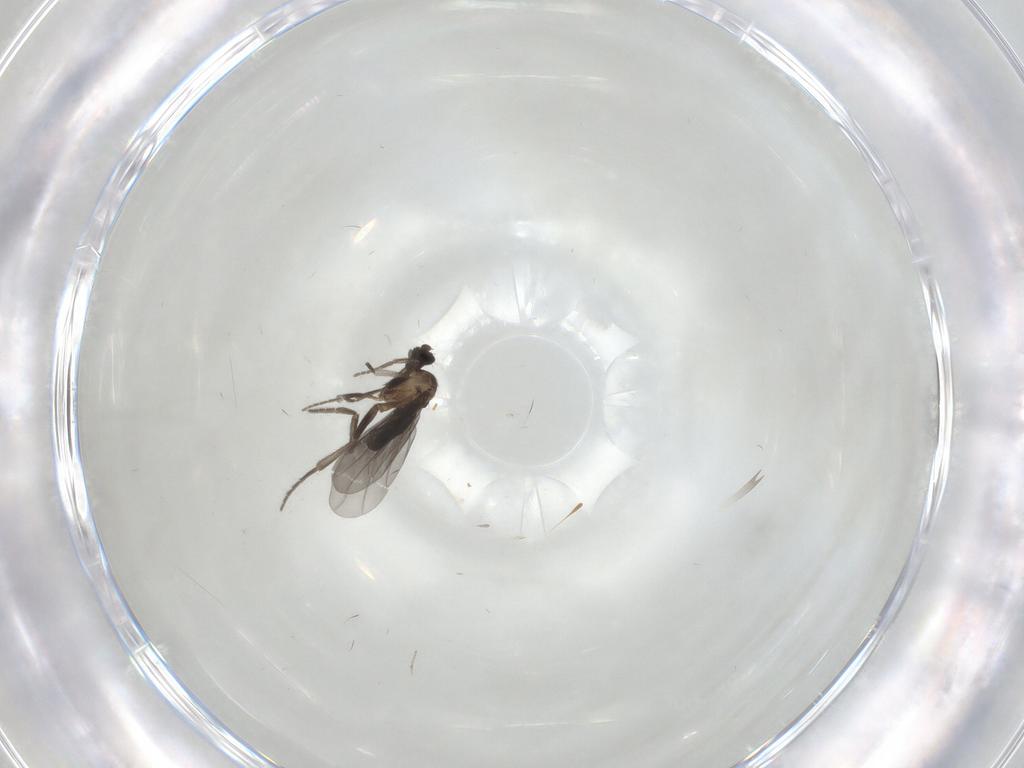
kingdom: Animalia
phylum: Arthropoda
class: Insecta
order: Diptera
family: Phoridae
